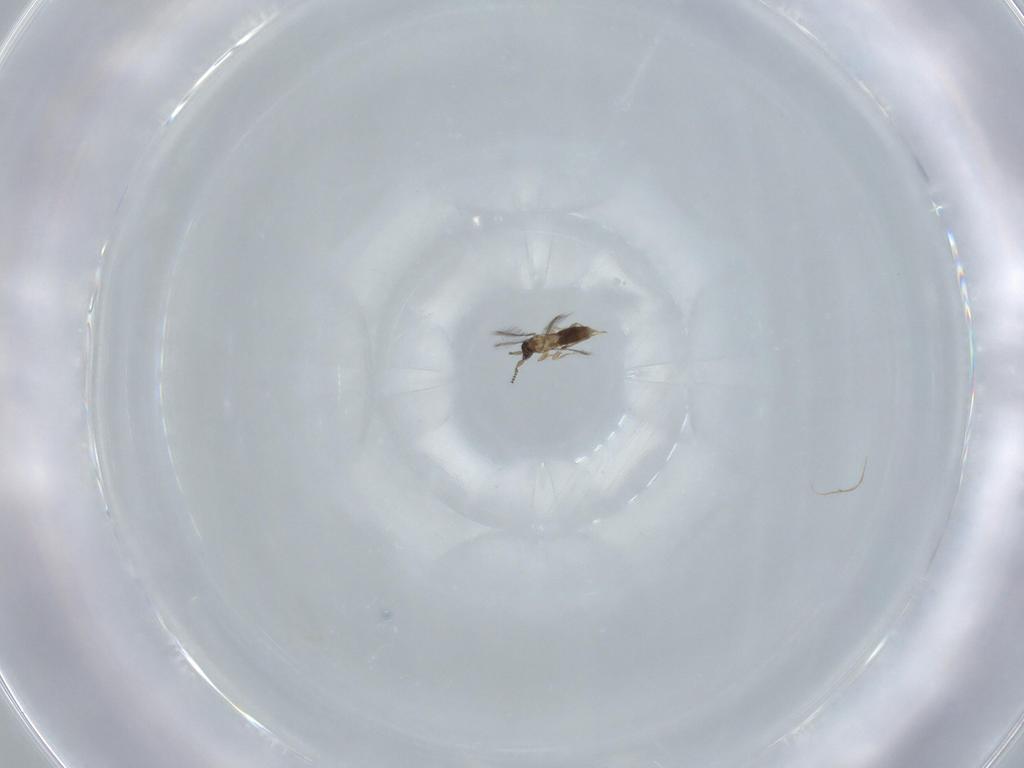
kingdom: Animalia
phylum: Arthropoda
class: Insecta
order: Hymenoptera
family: Mymaridae
